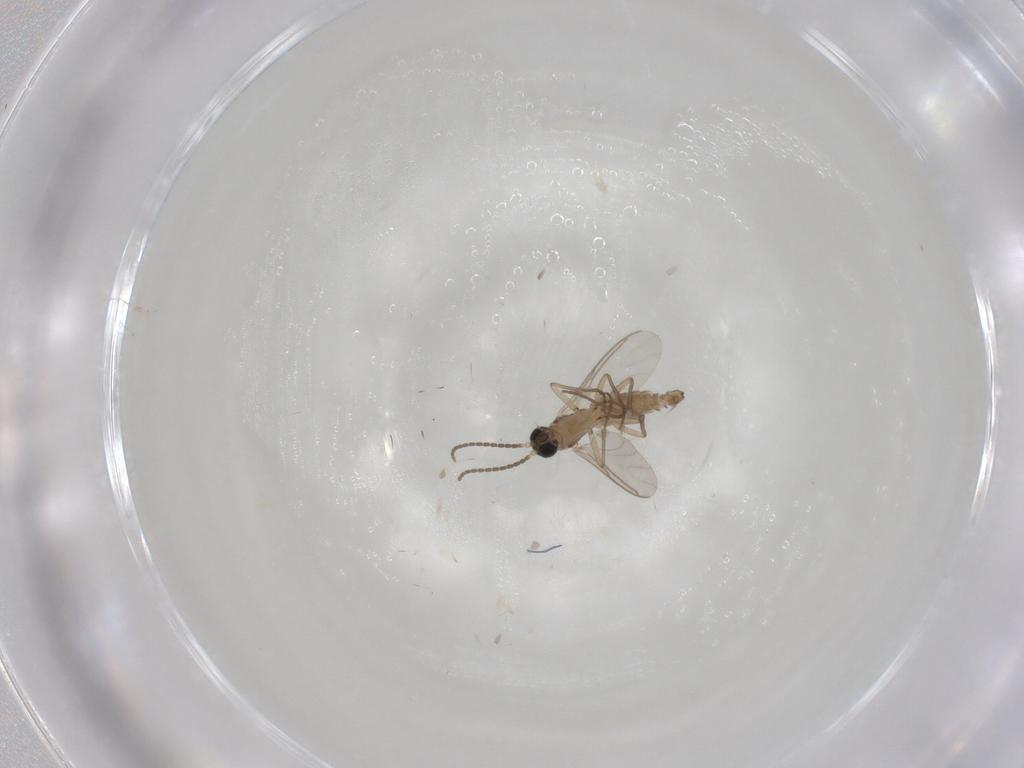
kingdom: Animalia
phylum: Arthropoda
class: Insecta
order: Diptera
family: Sciaridae
